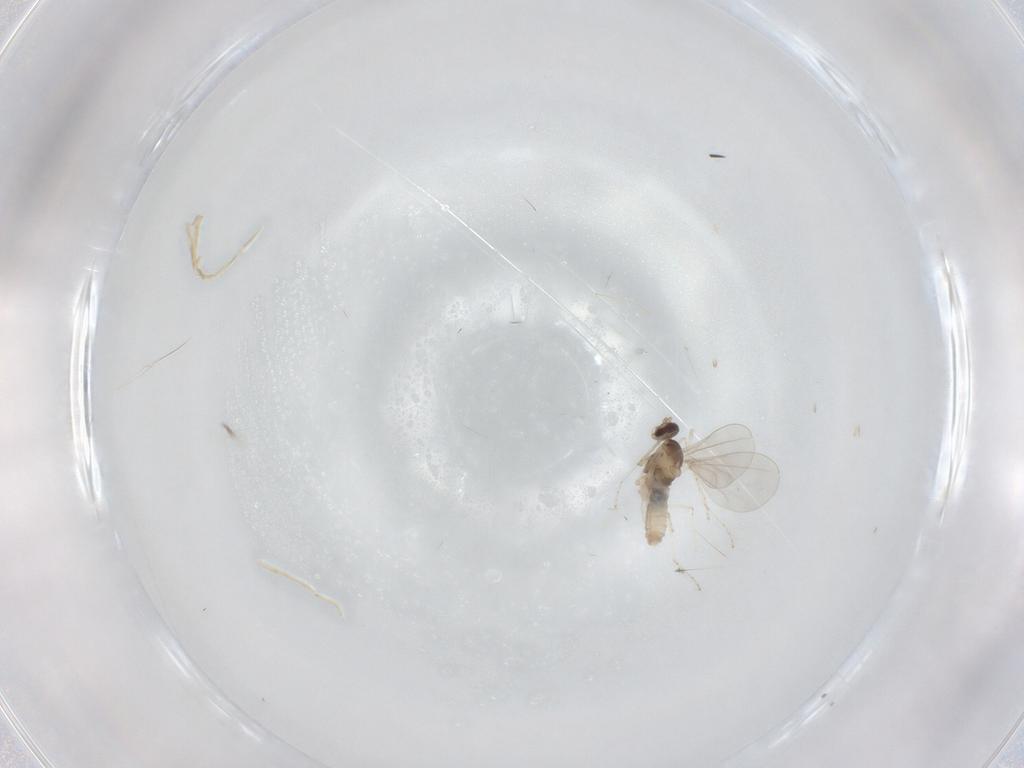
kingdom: Animalia
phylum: Arthropoda
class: Insecta
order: Diptera
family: Cecidomyiidae
